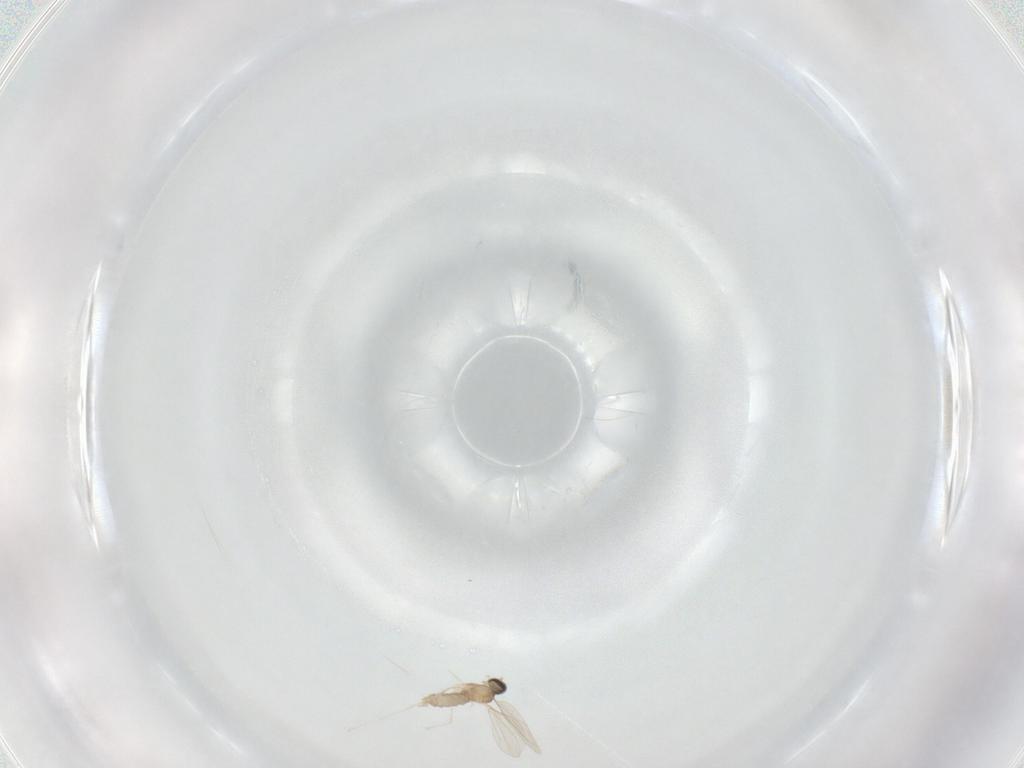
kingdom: Animalia
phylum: Arthropoda
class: Insecta
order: Diptera
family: Cecidomyiidae
